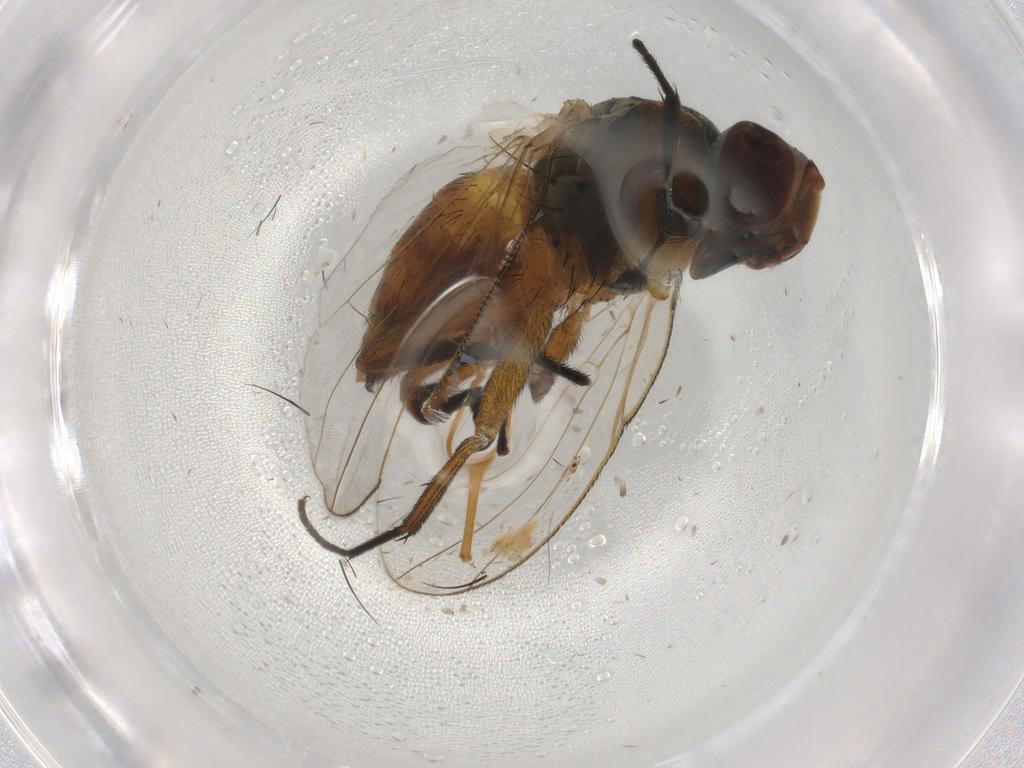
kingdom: Animalia
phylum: Arthropoda
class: Insecta
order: Diptera
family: Muscidae
